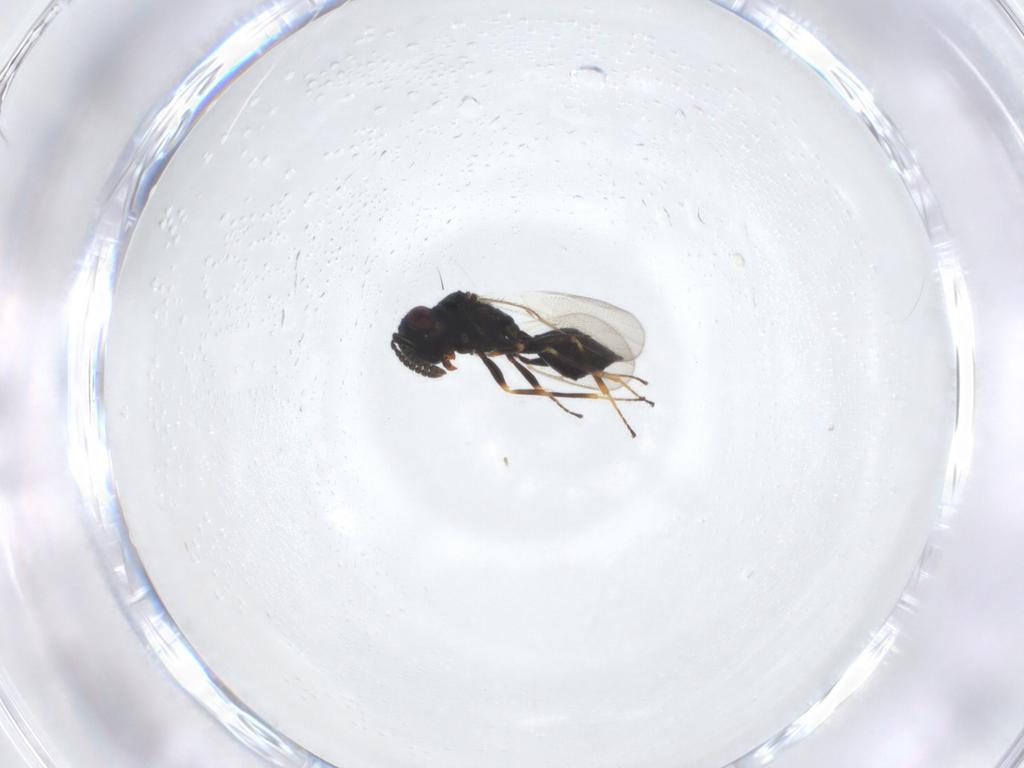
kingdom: Animalia
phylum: Arthropoda
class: Insecta
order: Hymenoptera
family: Pteromalidae
